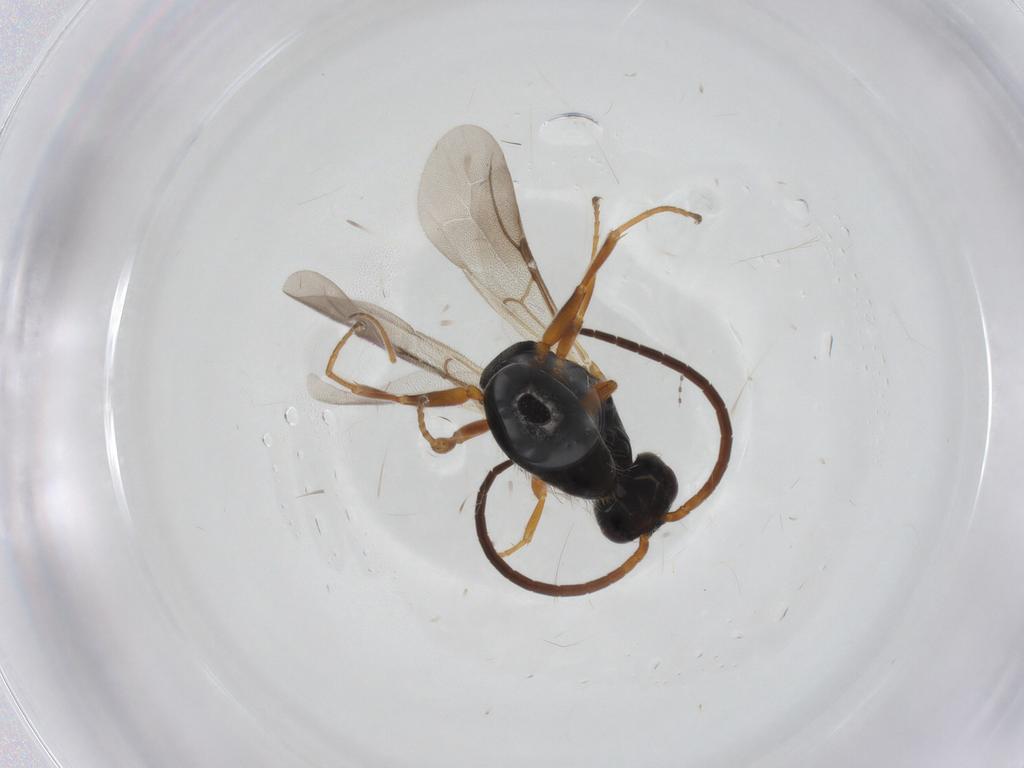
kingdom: Animalia
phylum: Arthropoda
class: Insecta
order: Hymenoptera
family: Bethylidae
